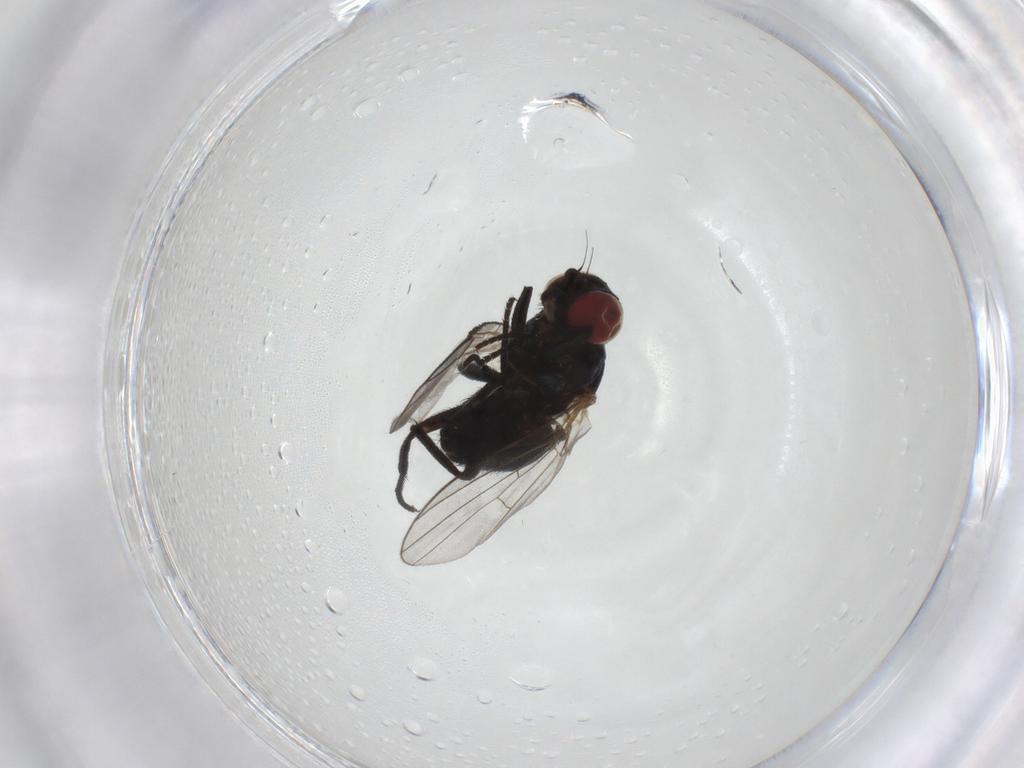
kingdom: Animalia
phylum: Arthropoda
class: Insecta
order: Diptera
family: Agromyzidae
